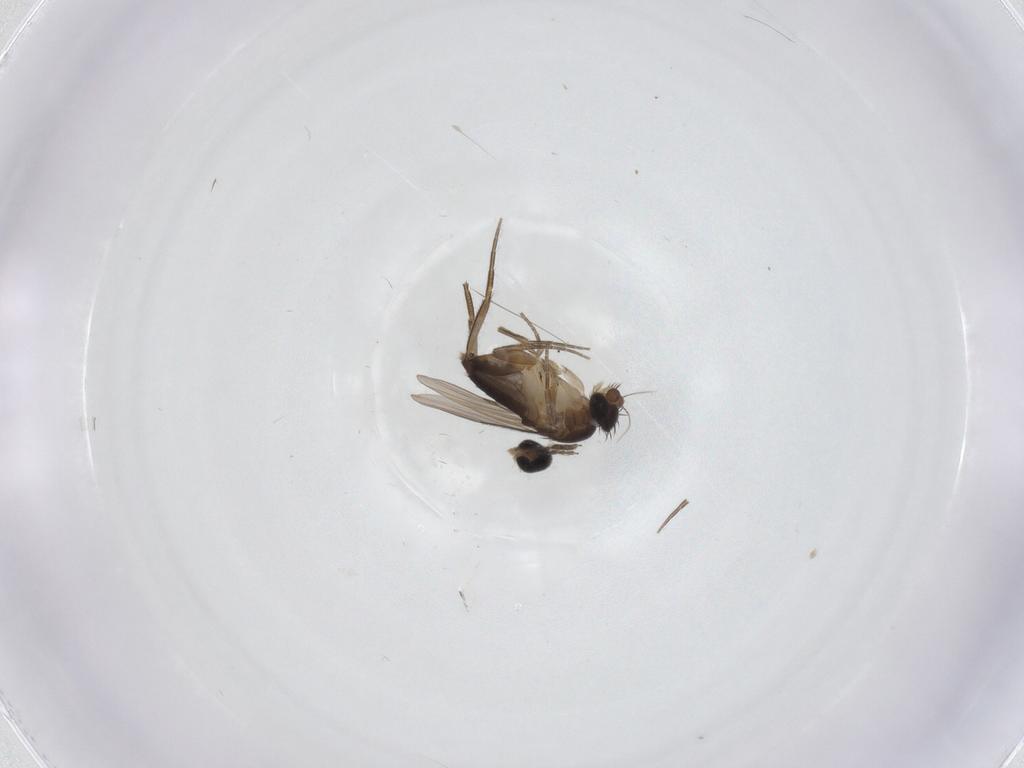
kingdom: Animalia
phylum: Arthropoda
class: Insecta
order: Diptera
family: Phoridae
